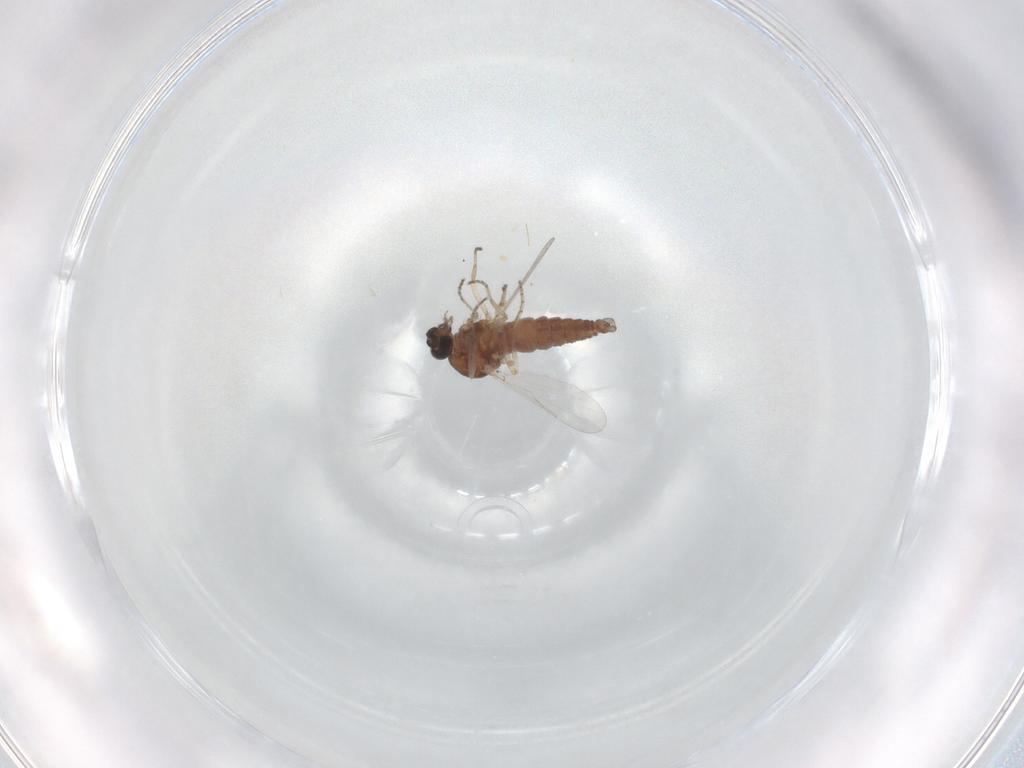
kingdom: Animalia
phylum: Arthropoda
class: Insecta
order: Diptera
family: Ceratopogonidae
